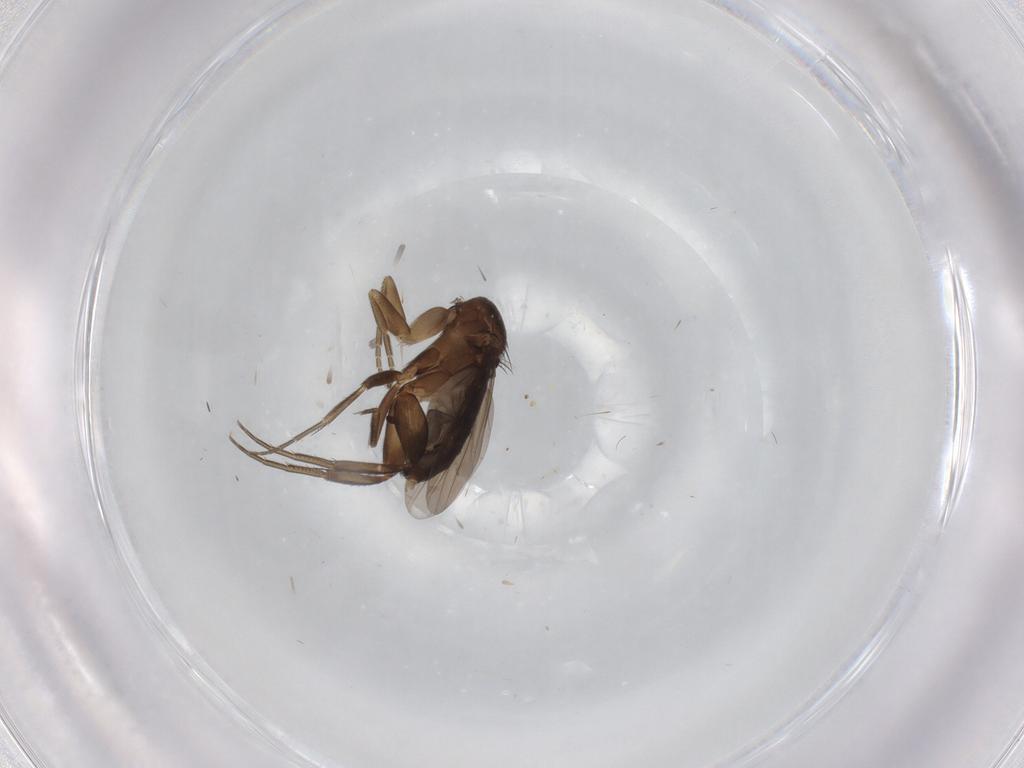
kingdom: Animalia
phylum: Arthropoda
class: Insecta
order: Diptera
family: Phoridae
